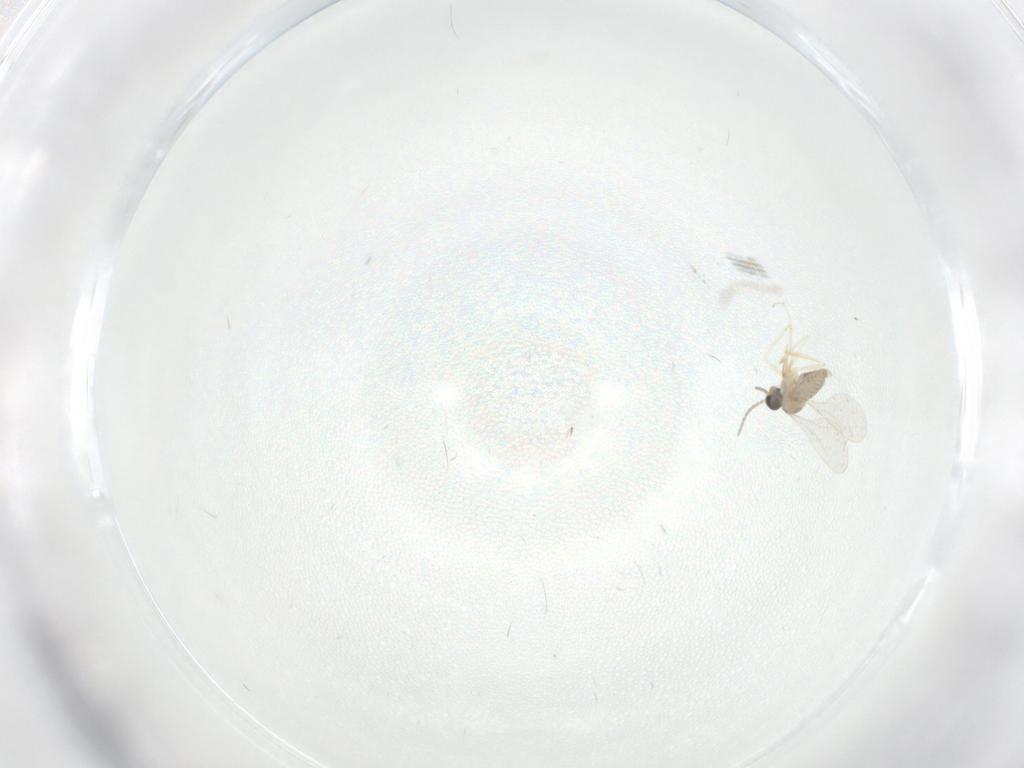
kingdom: Animalia
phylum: Arthropoda
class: Insecta
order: Diptera
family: Cecidomyiidae
